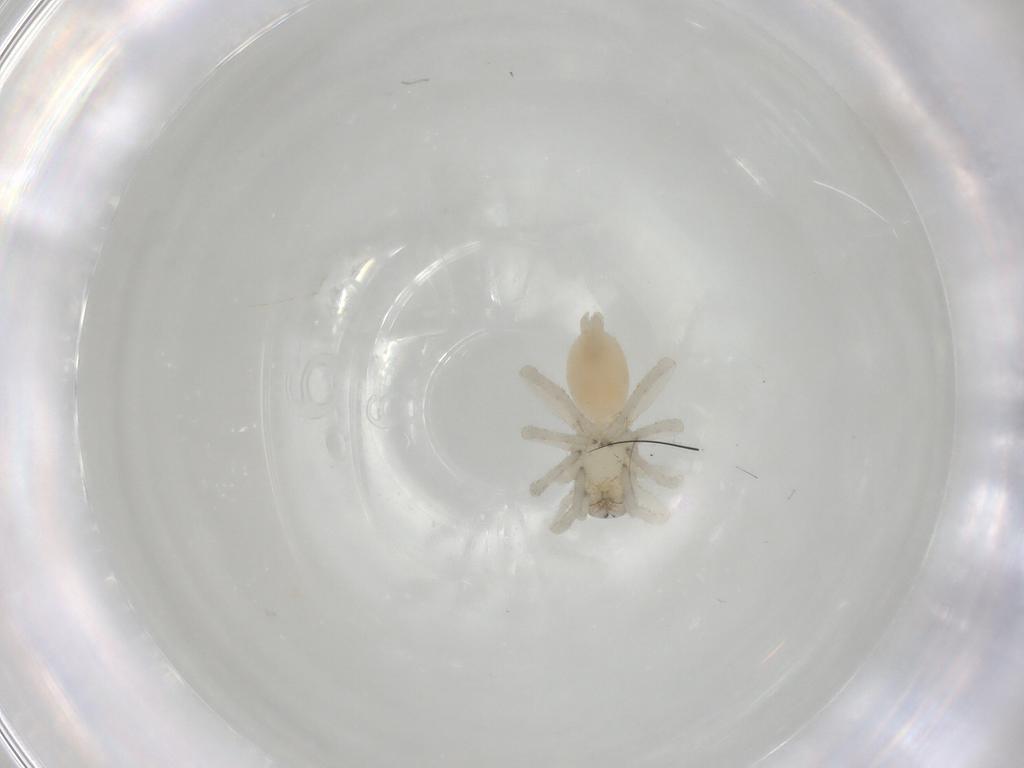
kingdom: Animalia
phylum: Arthropoda
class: Arachnida
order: Araneae
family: Clubionidae
